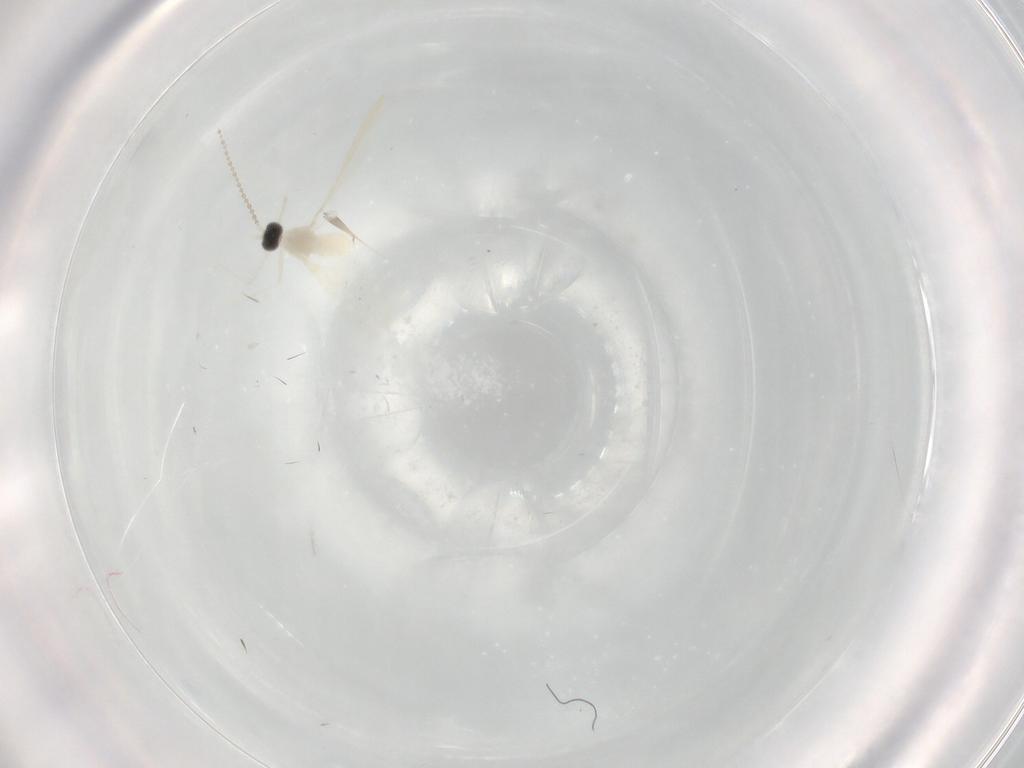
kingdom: Animalia
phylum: Arthropoda
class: Insecta
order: Diptera
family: Cecidomyiidae
